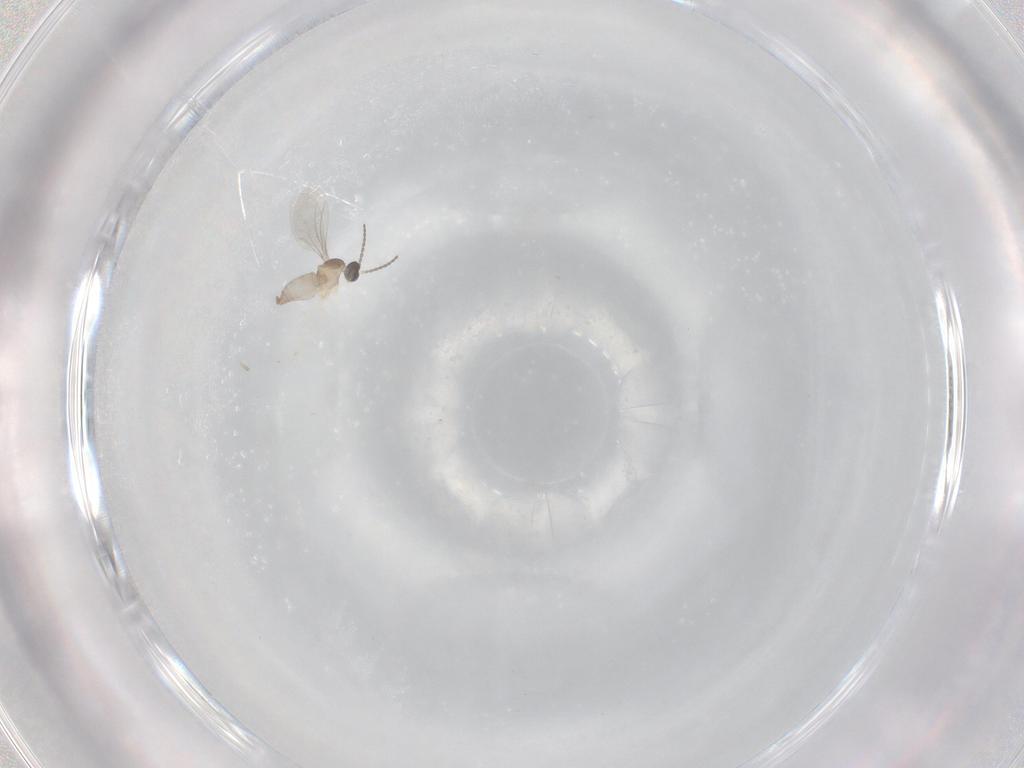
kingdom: Animalia
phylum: Arthropoda
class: Insecta
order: Diptera
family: Cecidomyiidae
